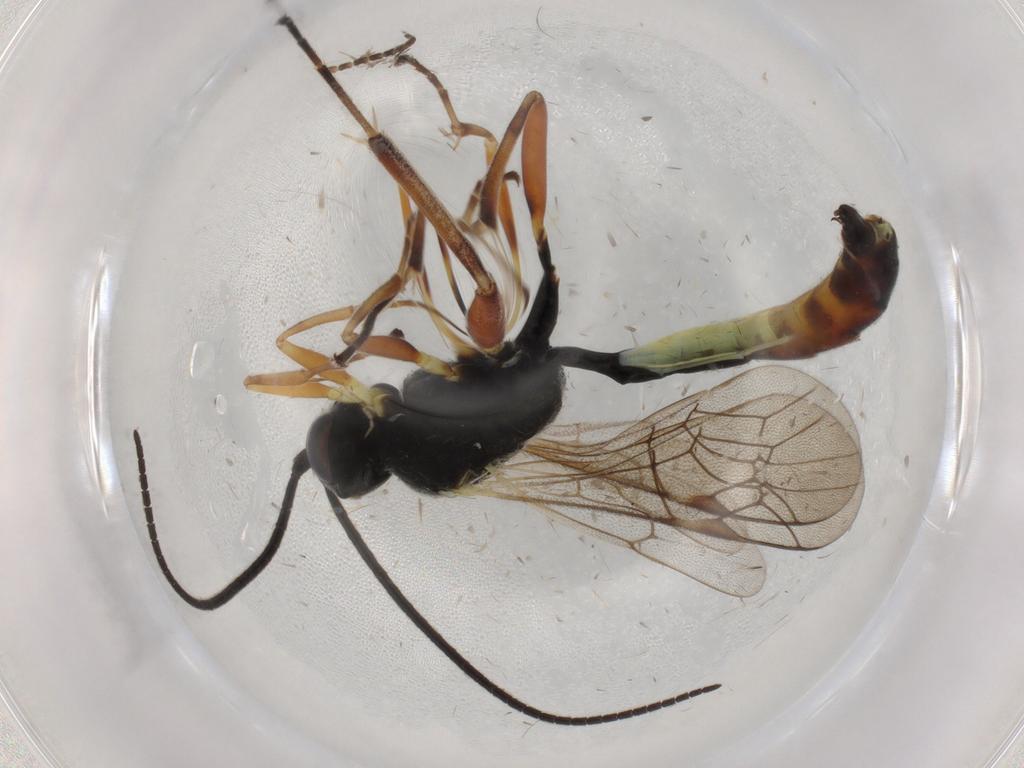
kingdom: Animalia
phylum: Arthropoda
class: Insecta
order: Hymenoptera
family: Ichneumonidae
